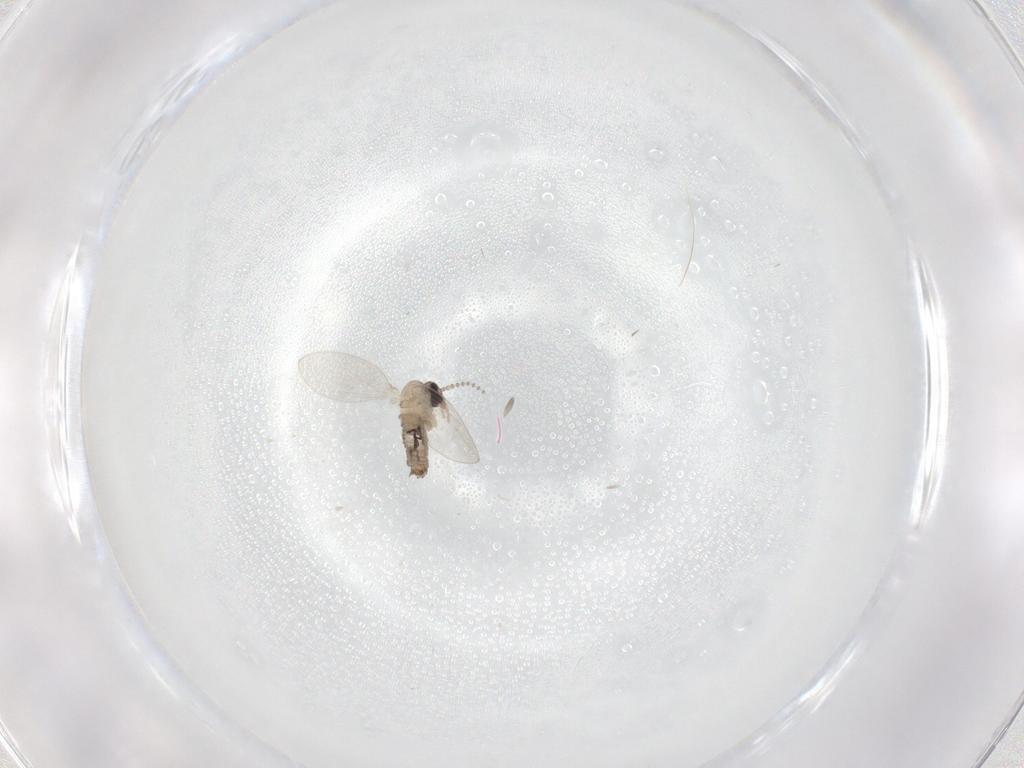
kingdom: Animalia
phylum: Arthropoda
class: Insecta
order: Diptera
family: Psychodidae
